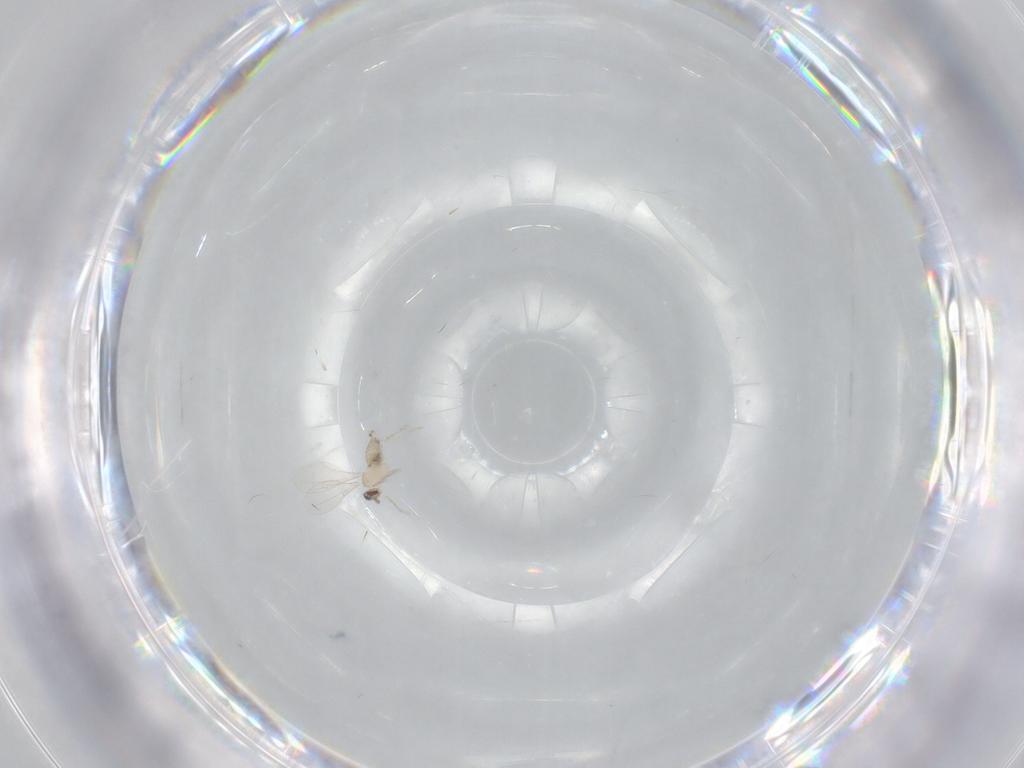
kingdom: Animalia
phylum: Arthropoda
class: Insecta
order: Diptera
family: Cecidomyiidae
